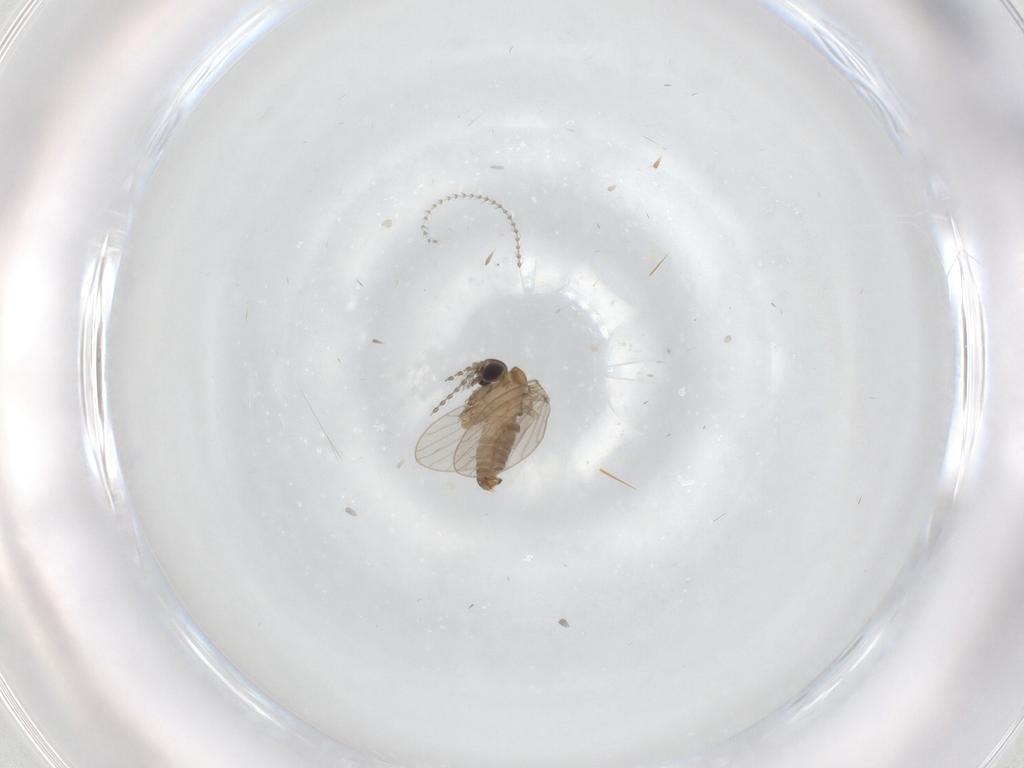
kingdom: Animalia
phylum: Arthropoda
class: Insecta
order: Diptera
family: Cecidomyiidae
